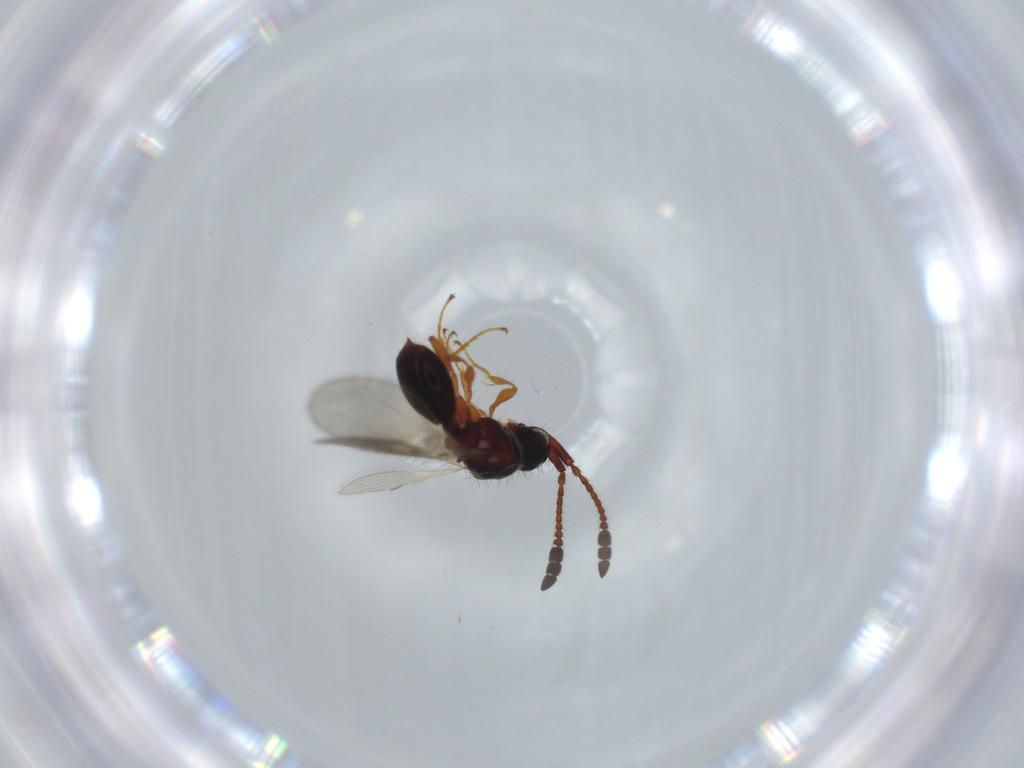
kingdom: Animalia
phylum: Arthropoda
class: Insecta
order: Hymenoptera
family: Diapriidae
